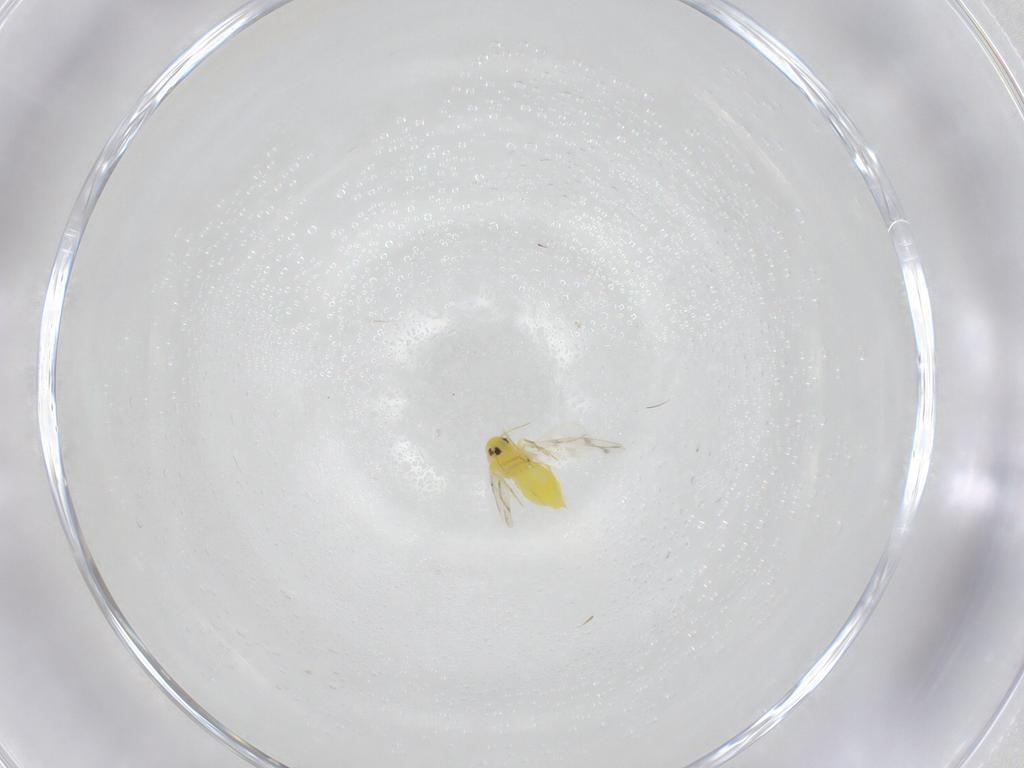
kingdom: Animalia
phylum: Arthropoda
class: Insecta
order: Hemiptera
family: Aleyrodidae
